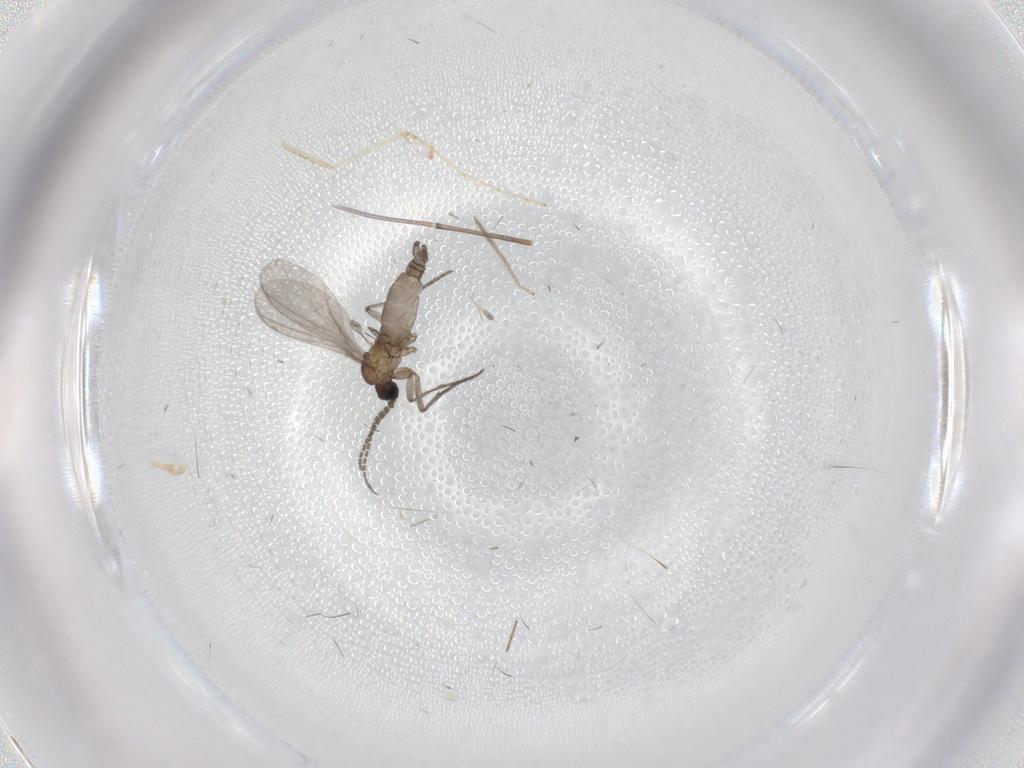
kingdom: Animalia
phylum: Arthropoda
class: Insecta
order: Diptera
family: Sciaridae
